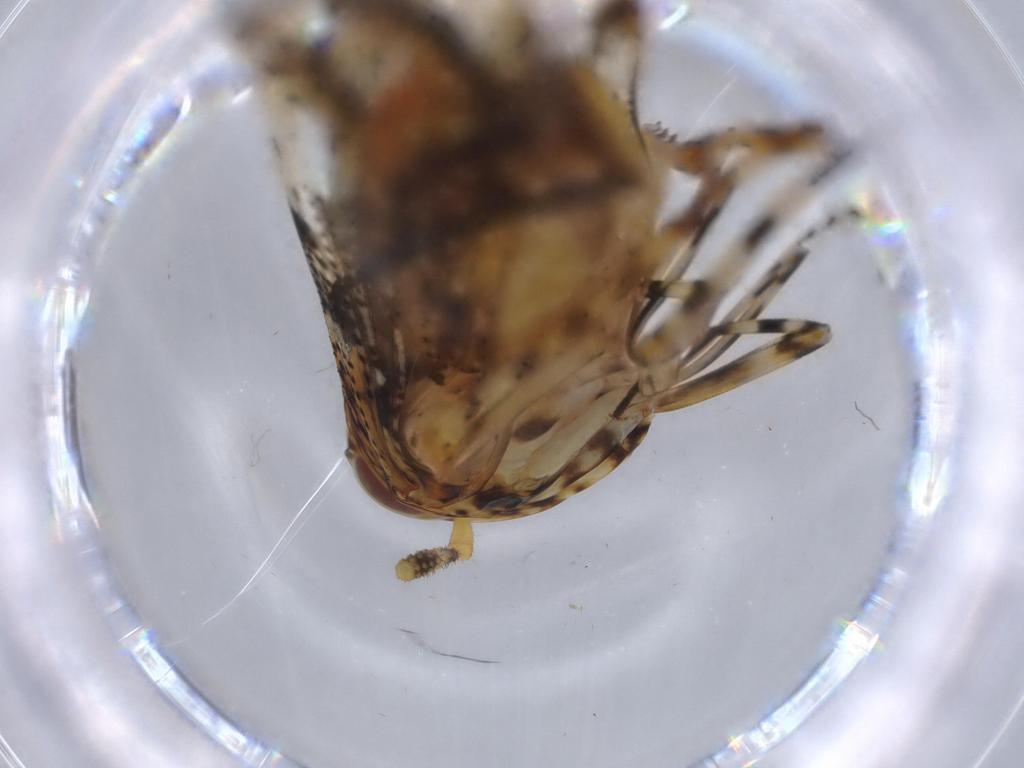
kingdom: Animalia
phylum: Arthropoda
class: Insecta
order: Hemiptera
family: Delphacidae
